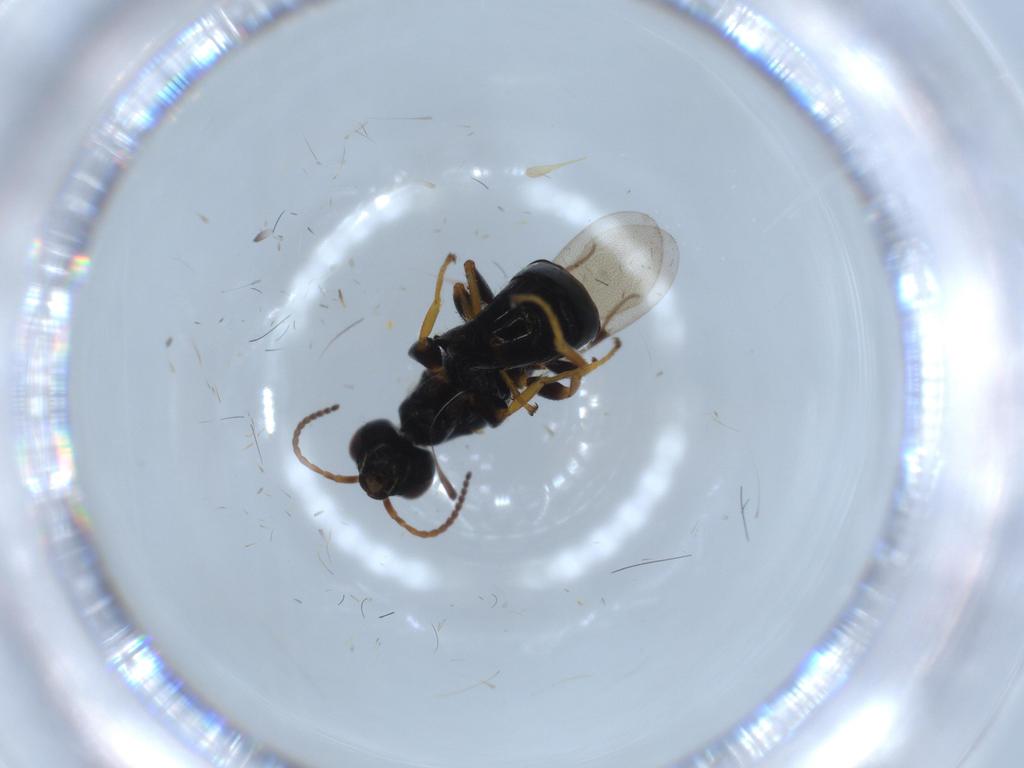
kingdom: Animalia
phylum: Arthropoda
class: Insecta
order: Hymenoptera
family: Bethylidae
